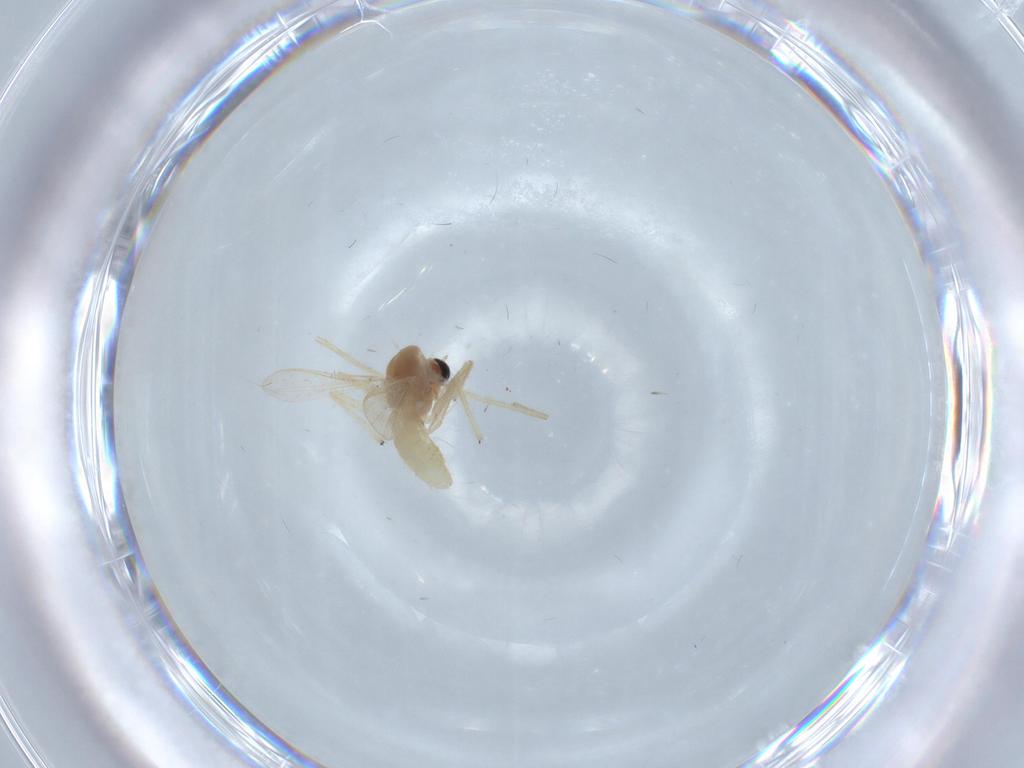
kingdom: Animalia
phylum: Arthropoda
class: Insecta
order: Diptera
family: Chironomidae
